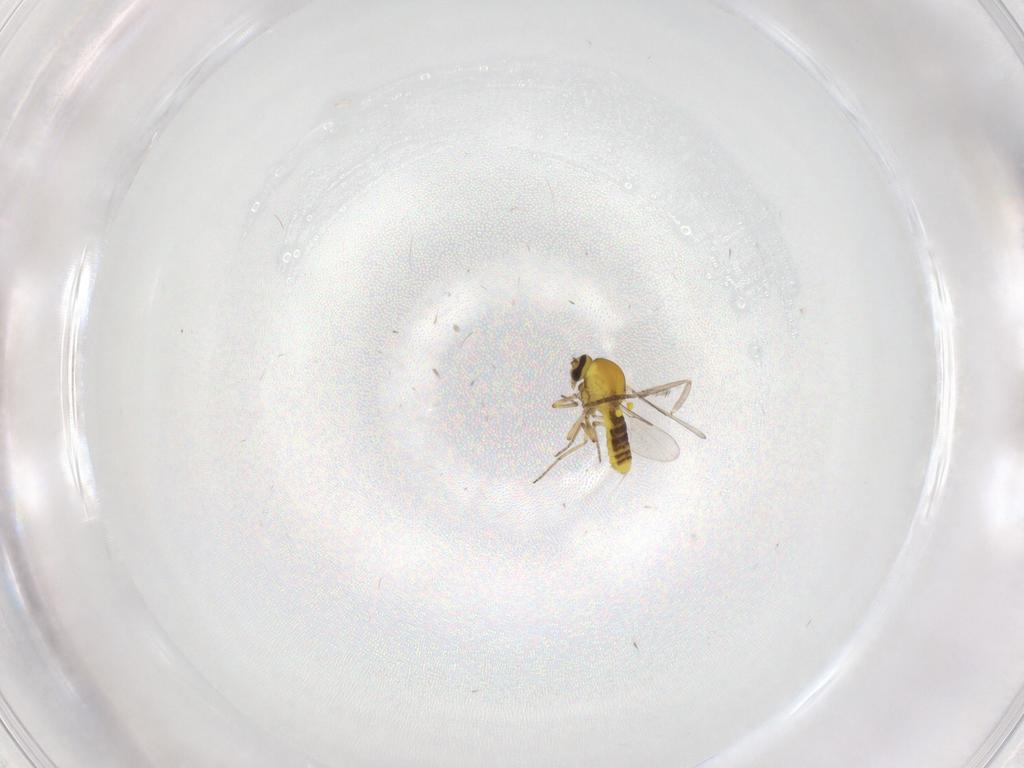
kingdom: Animalia
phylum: Arthropoda
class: Insecta
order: Diptera
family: Ceratopogonidae
